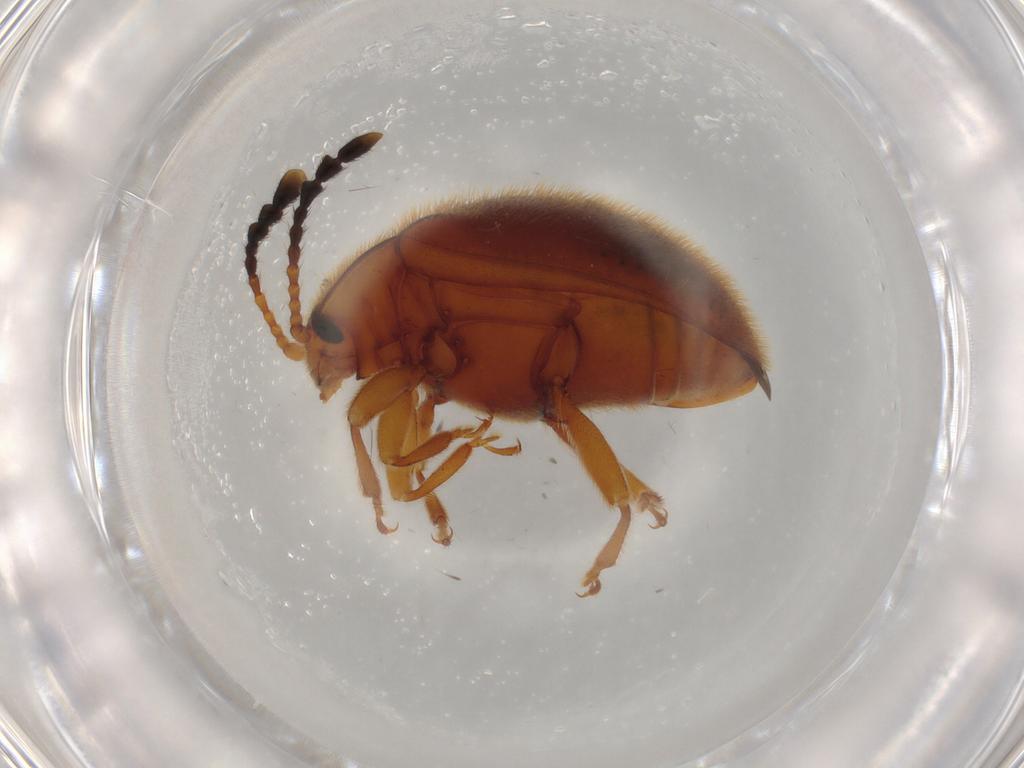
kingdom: Animalia
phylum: Arthropoda
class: Insecta
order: Coleoptera
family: Endomychidae
